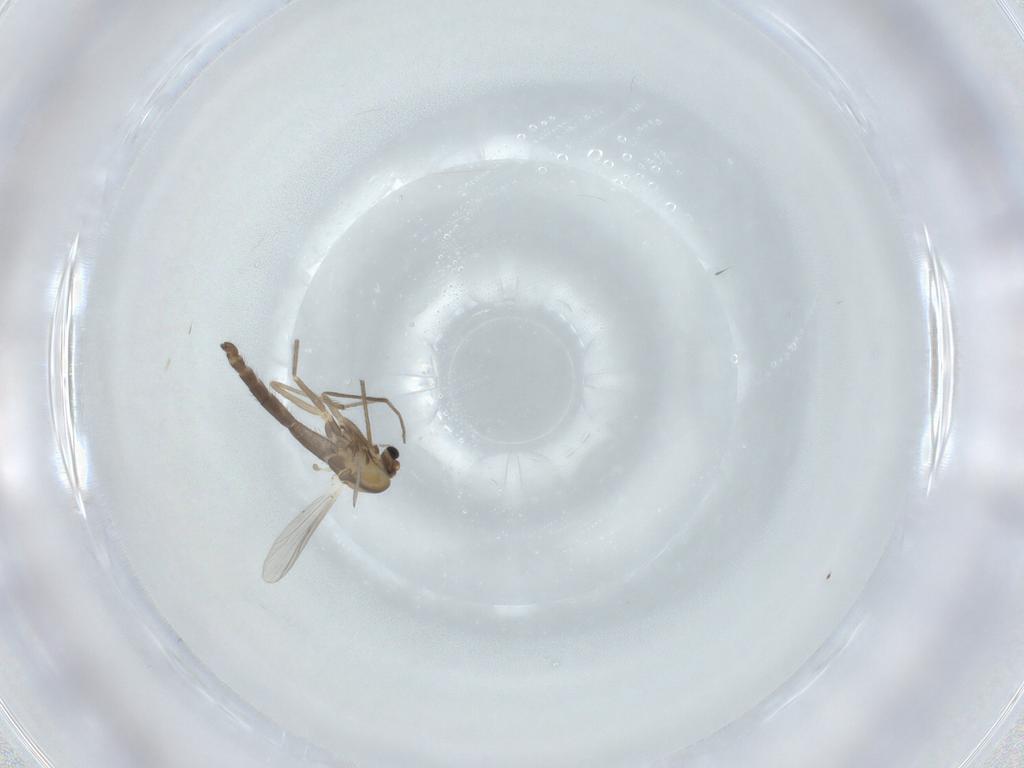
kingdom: Animalia
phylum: Arthropoda
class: Insecta
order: Diptera
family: Chironomidae
